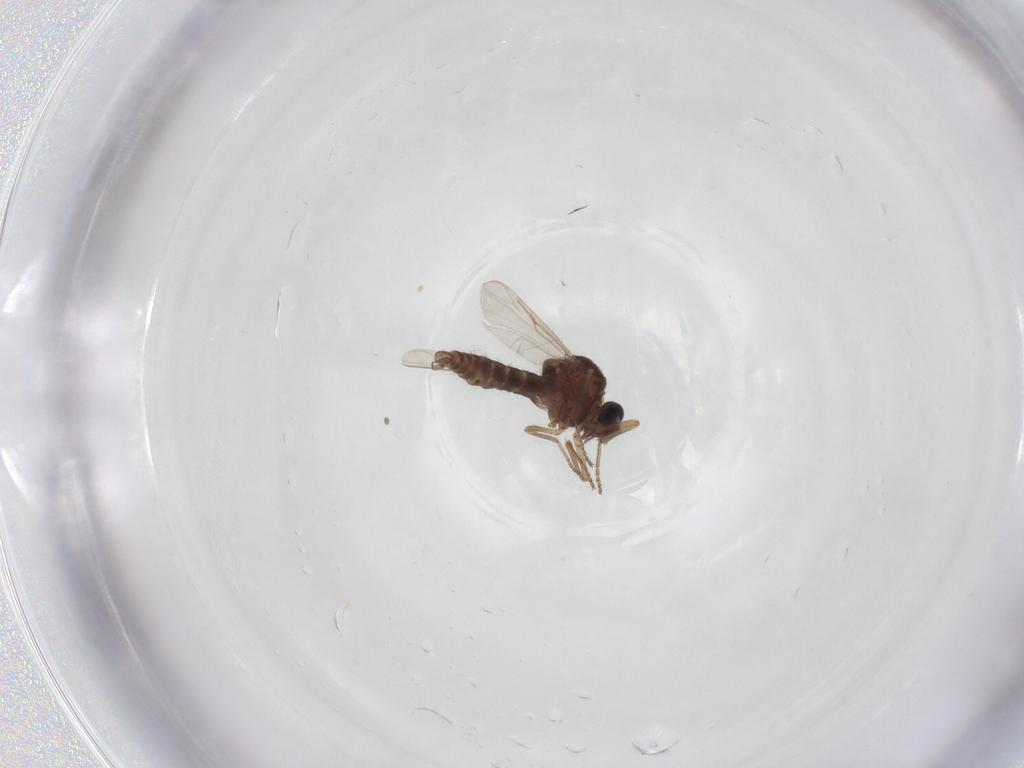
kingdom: Animalia
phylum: Arthropoda
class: Insecta
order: Diptera
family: Ceratopogonidae
